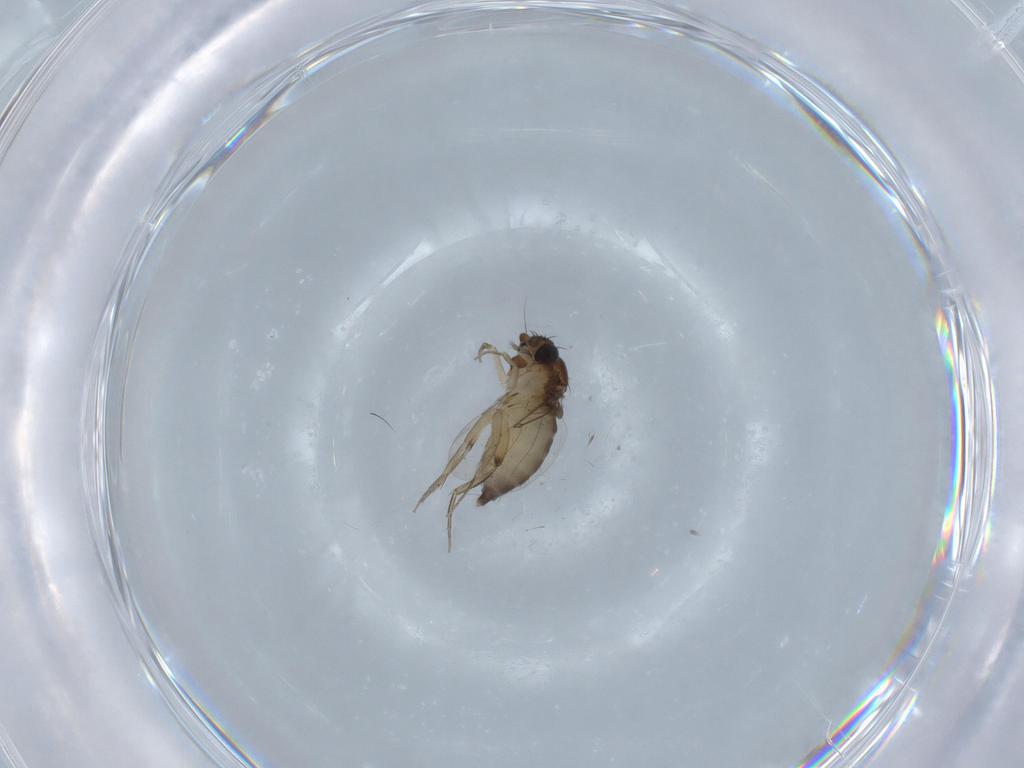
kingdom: Animalia
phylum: Arthropoda
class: Insecta
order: Diptera
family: Phoridae
